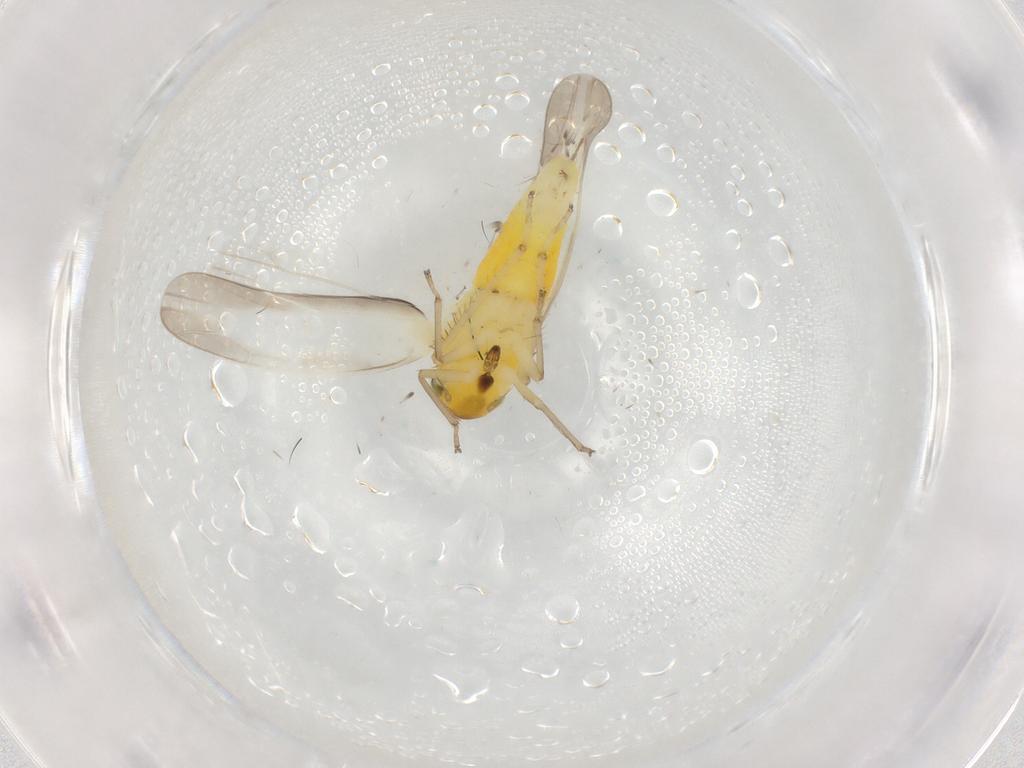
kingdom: Animalia
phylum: Arthropoda
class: Insecta
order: Hemiptera
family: Cicadellidae
